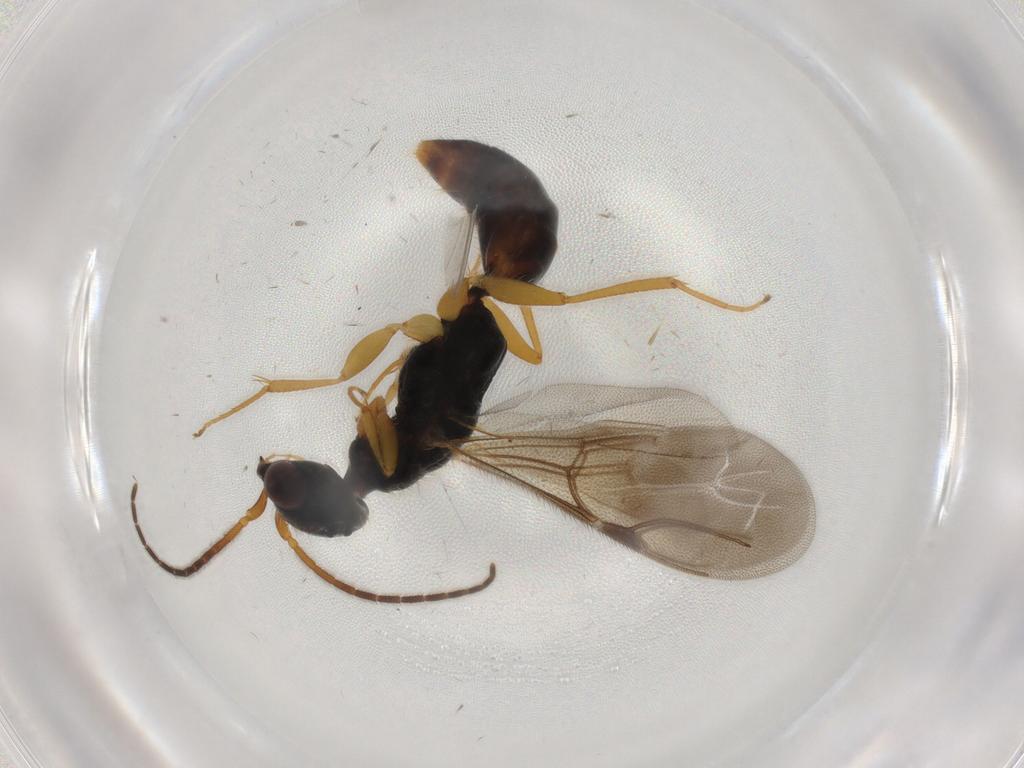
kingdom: Animalia
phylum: Arthropoda
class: Insecta
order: Hymenoptera
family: Bethylidae
